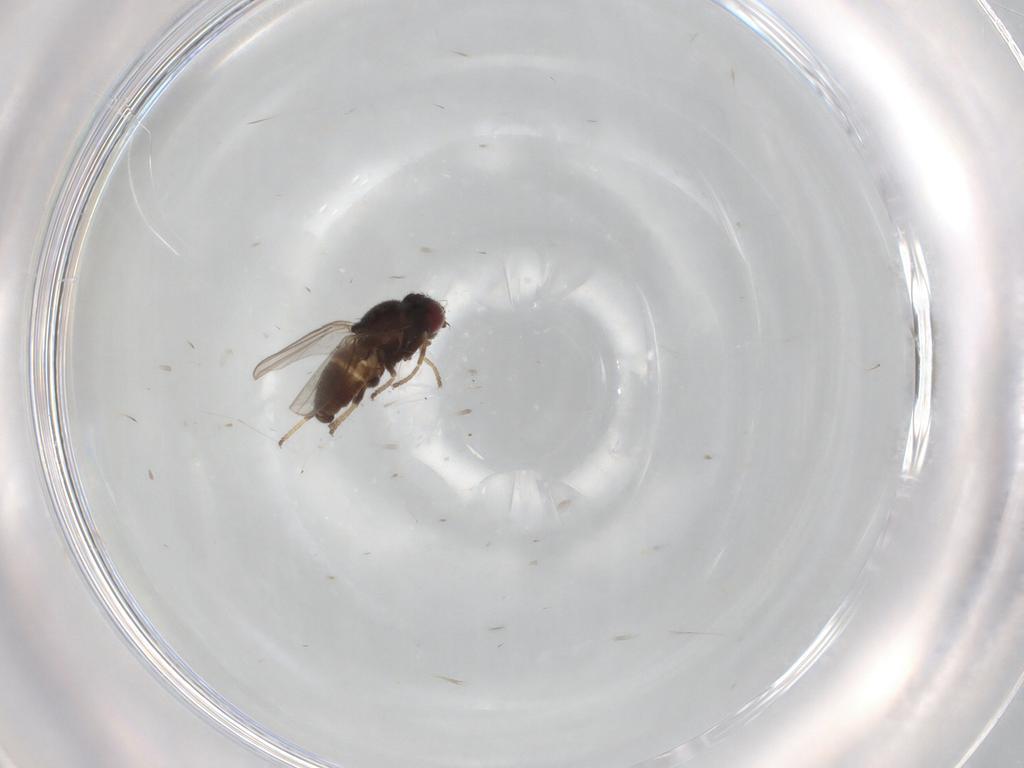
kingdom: Animalia
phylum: Arthropoda
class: Insecta
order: Diptera
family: Chloropidae
